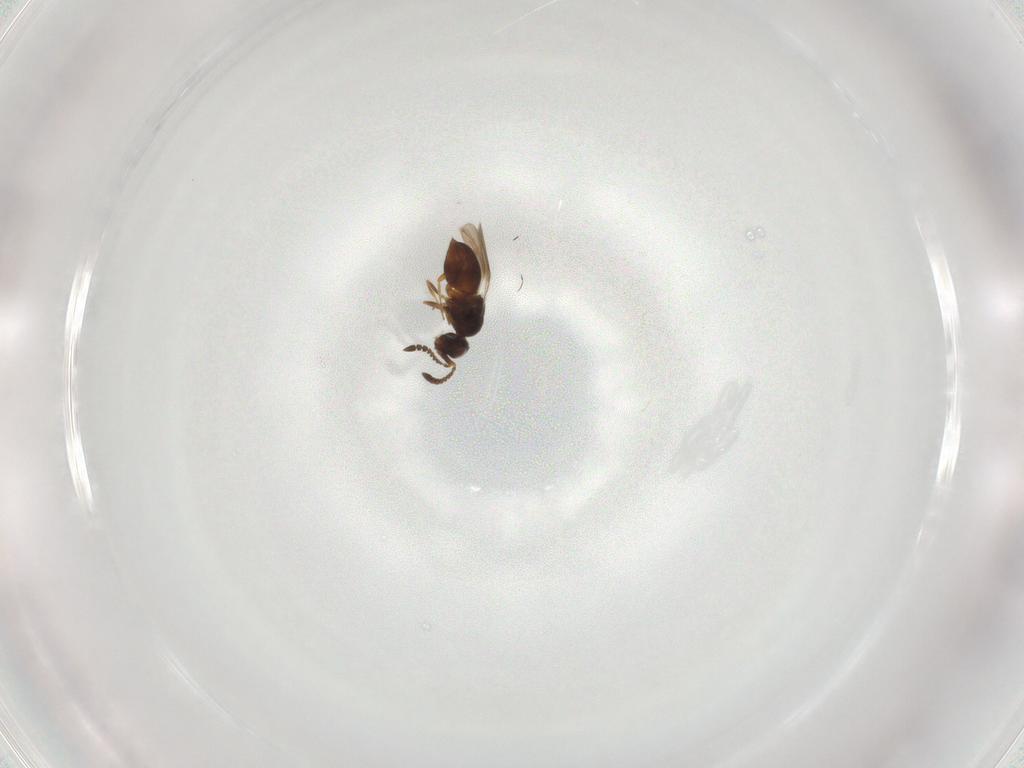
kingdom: Animalia
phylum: Arthropoda
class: Insecta
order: Hymenoptera
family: Ceraphronidae
